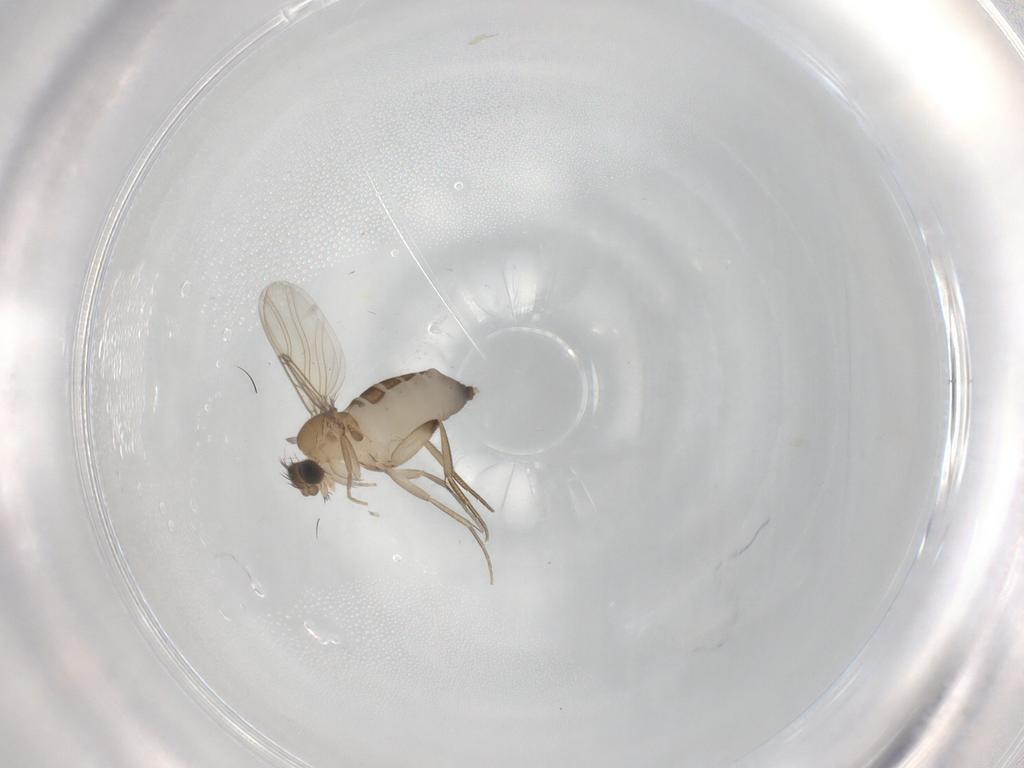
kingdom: Animalia
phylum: Arthropoda
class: Insecta
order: Diptera
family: Phoridae
